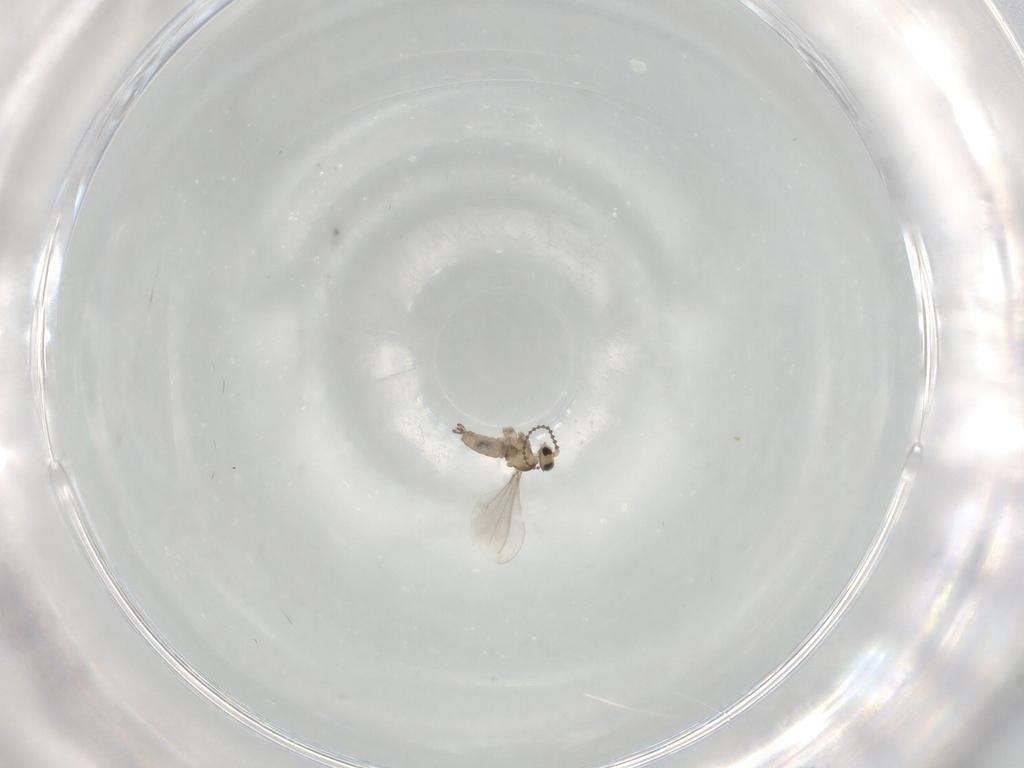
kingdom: Animalia
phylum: Arthropoda
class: Insecta
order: Diptera
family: Cecidomyiidae
